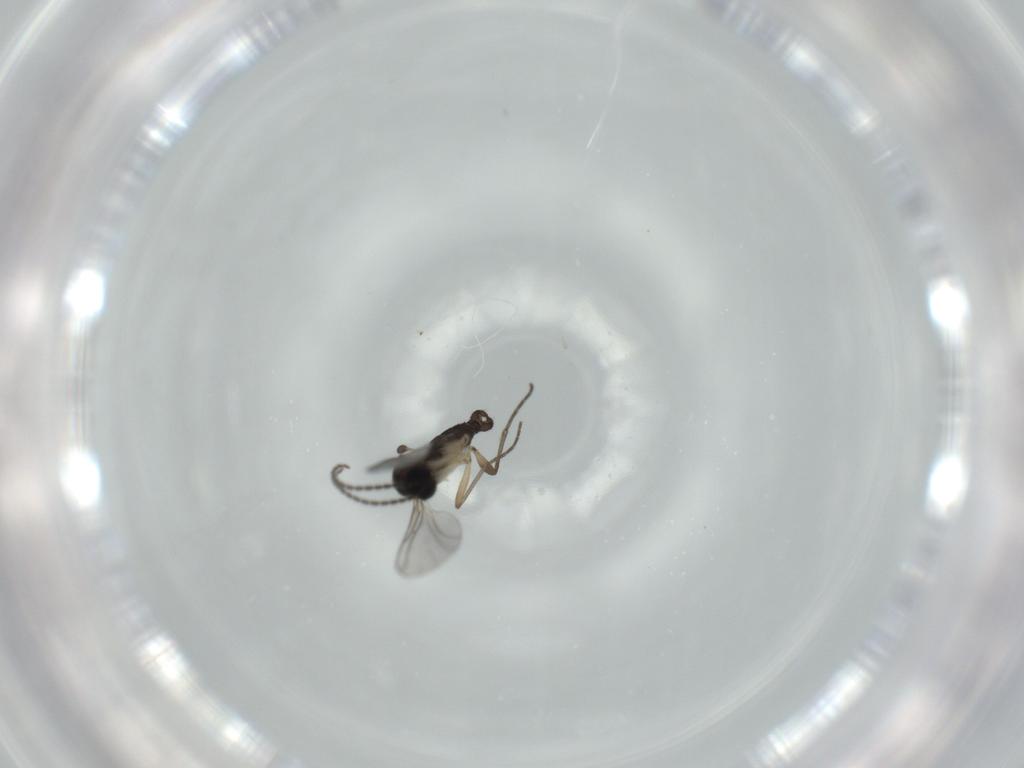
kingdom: Animalia
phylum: Arthropoda
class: Insecta
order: Diptera
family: Sciaridae
